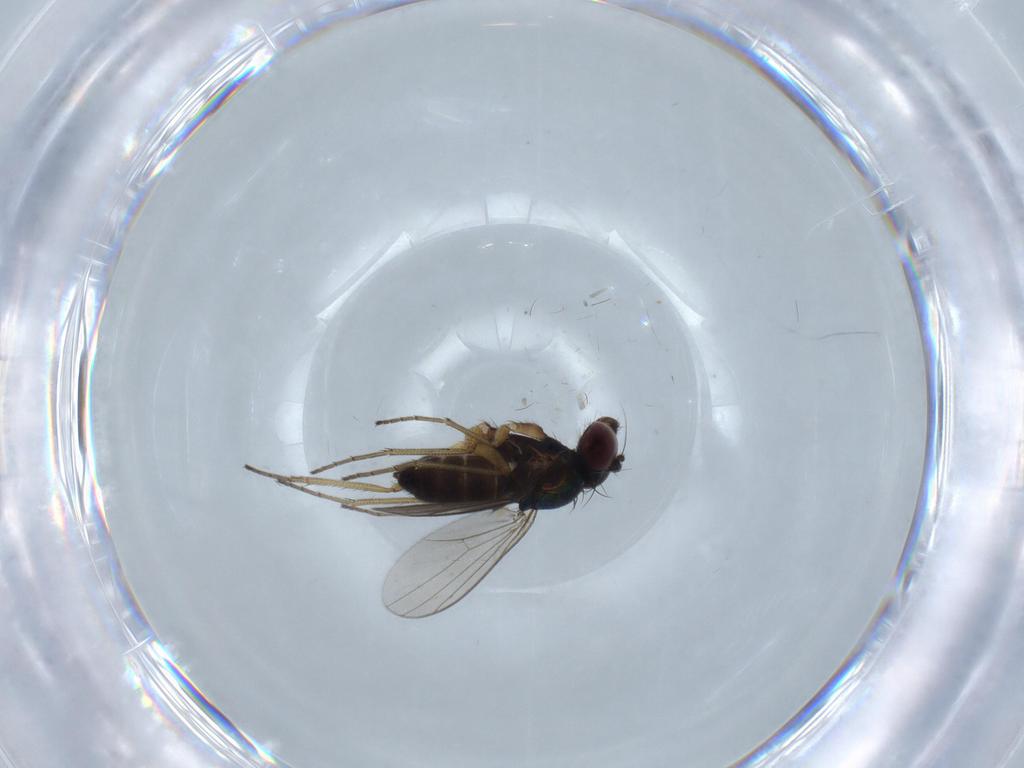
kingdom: Animalia
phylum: Arthropoda
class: Insecta
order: Diptera
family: Dolichopodidae
